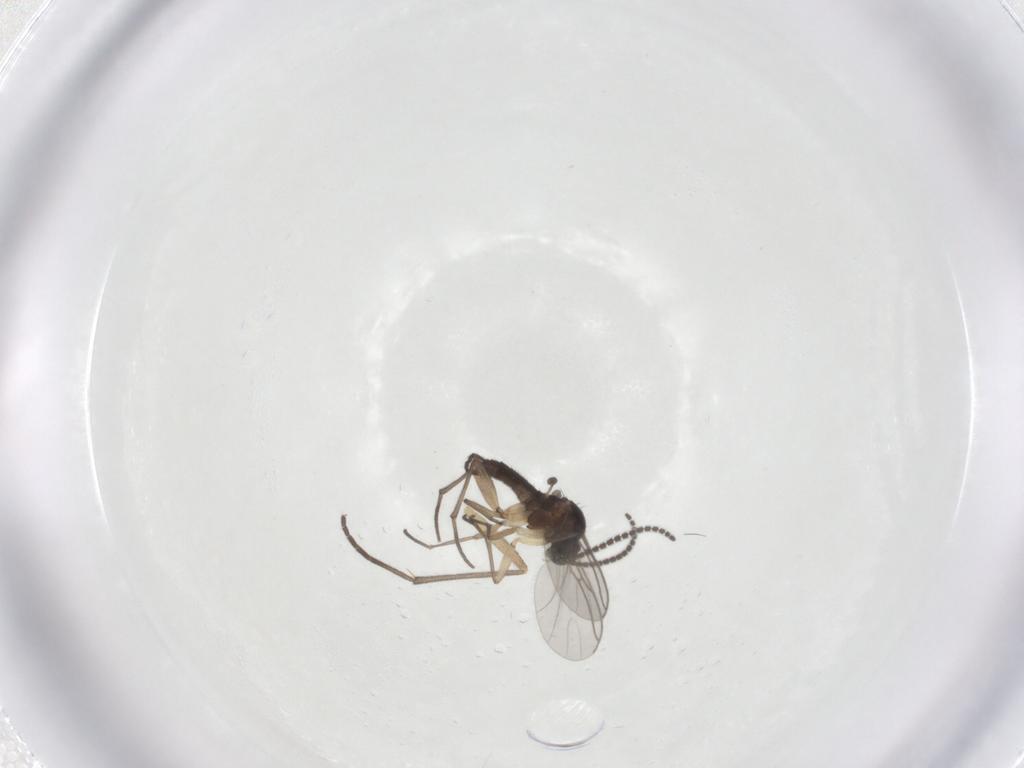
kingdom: Animalia
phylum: Arthropoda
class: Insecta
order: Diptera
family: Sciaridae
